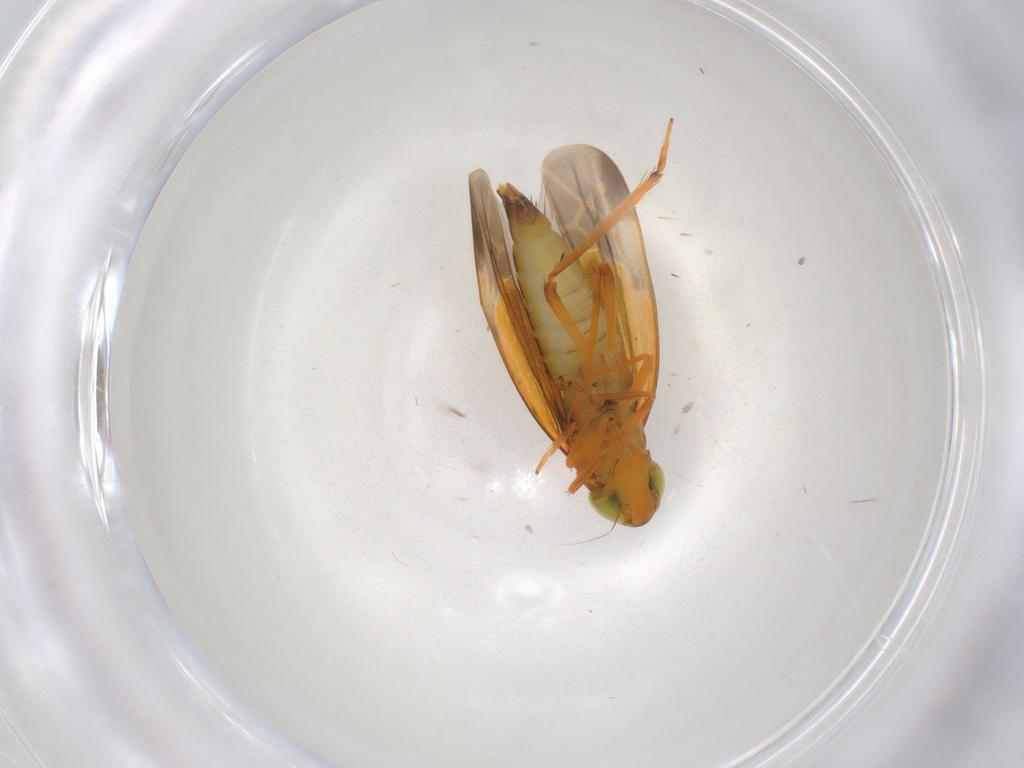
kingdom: Animalia
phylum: Arthropoda
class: Insecta
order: Hemiptera
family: Cicadellidae
